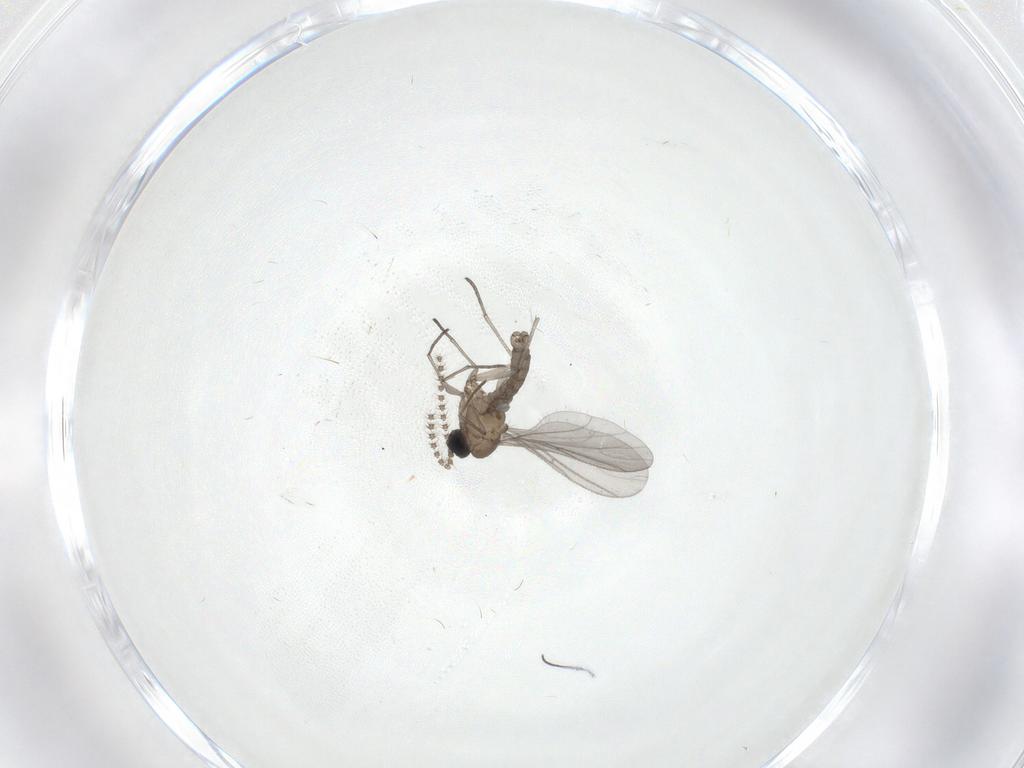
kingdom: Animalia
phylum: Arthropoda
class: Insecta
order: Diptera
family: Sciaridae
